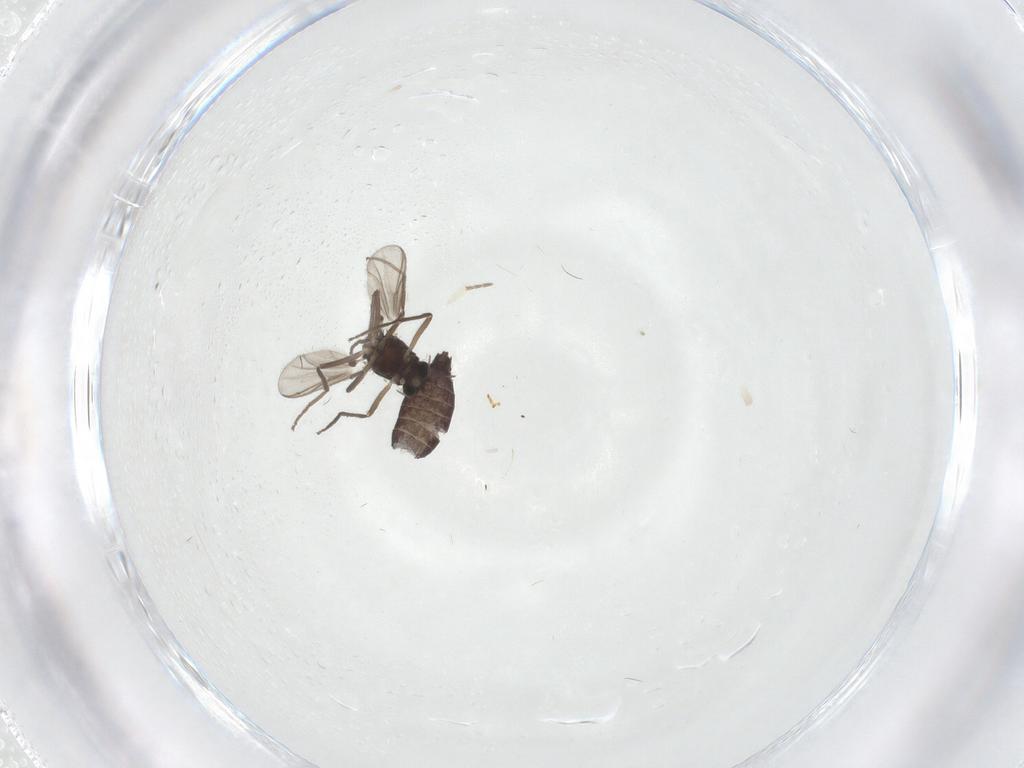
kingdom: Animalia
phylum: Arthropoda
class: Insecta
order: Diptera
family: Chironomidae
